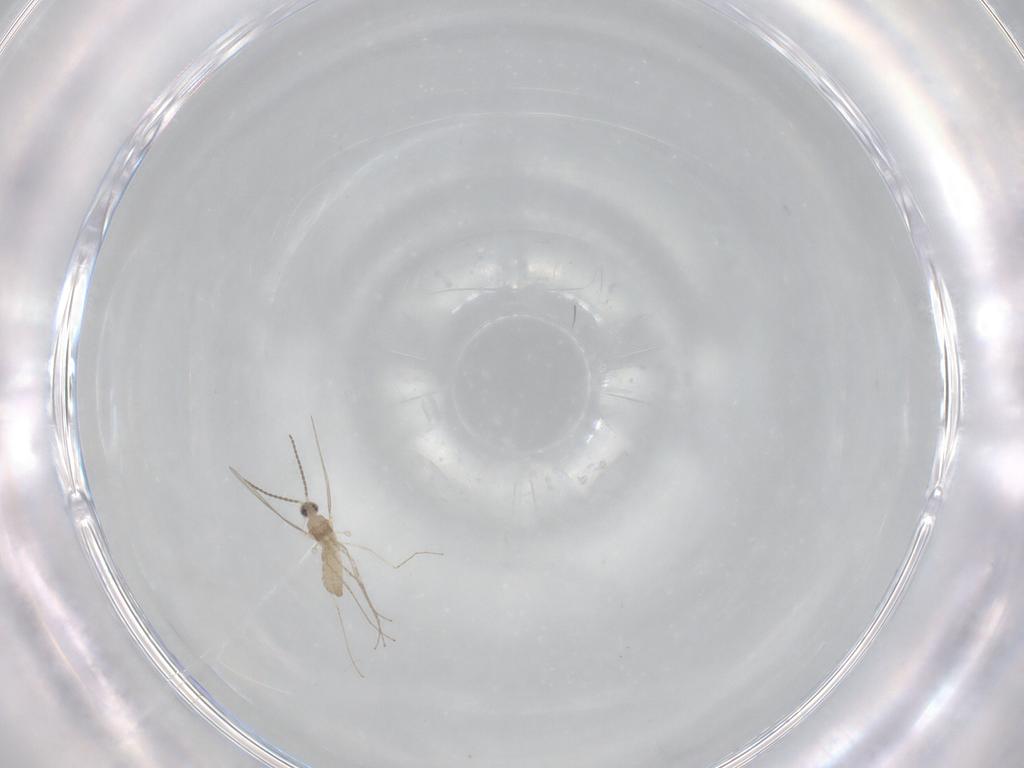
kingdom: Animalia
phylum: Arthropoda
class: Insecta
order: Diptera
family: Cecidomyiidae
